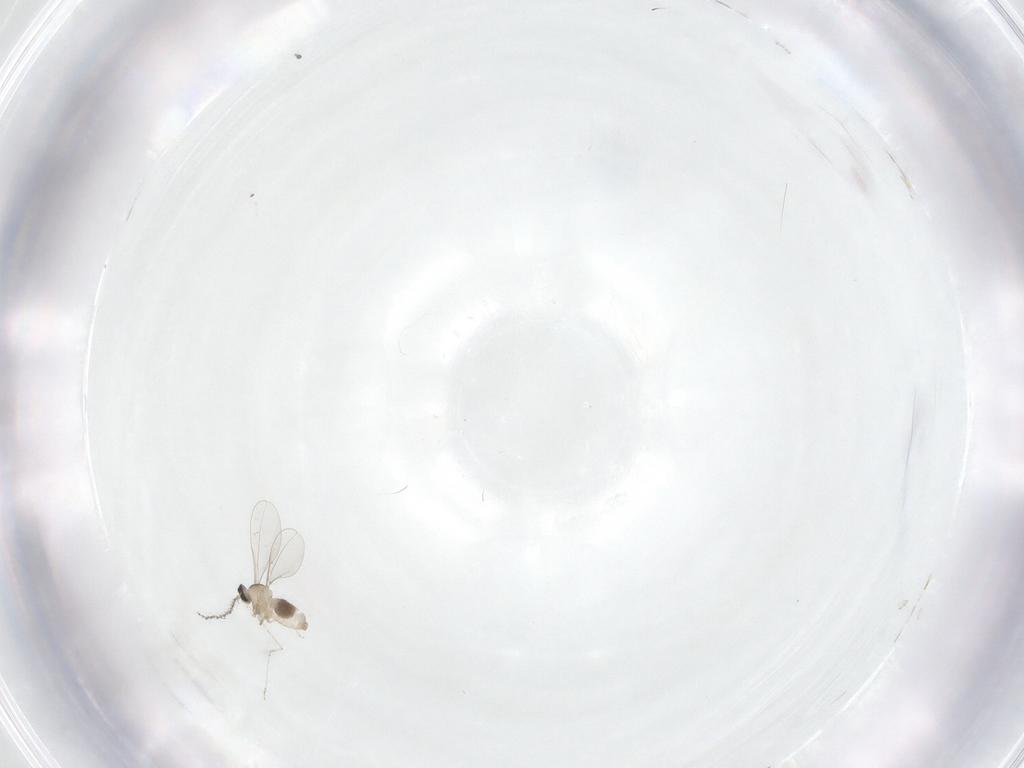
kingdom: Animalia
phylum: Arthropoda
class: Insecta
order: Diptera
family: Cecidomyiidae
